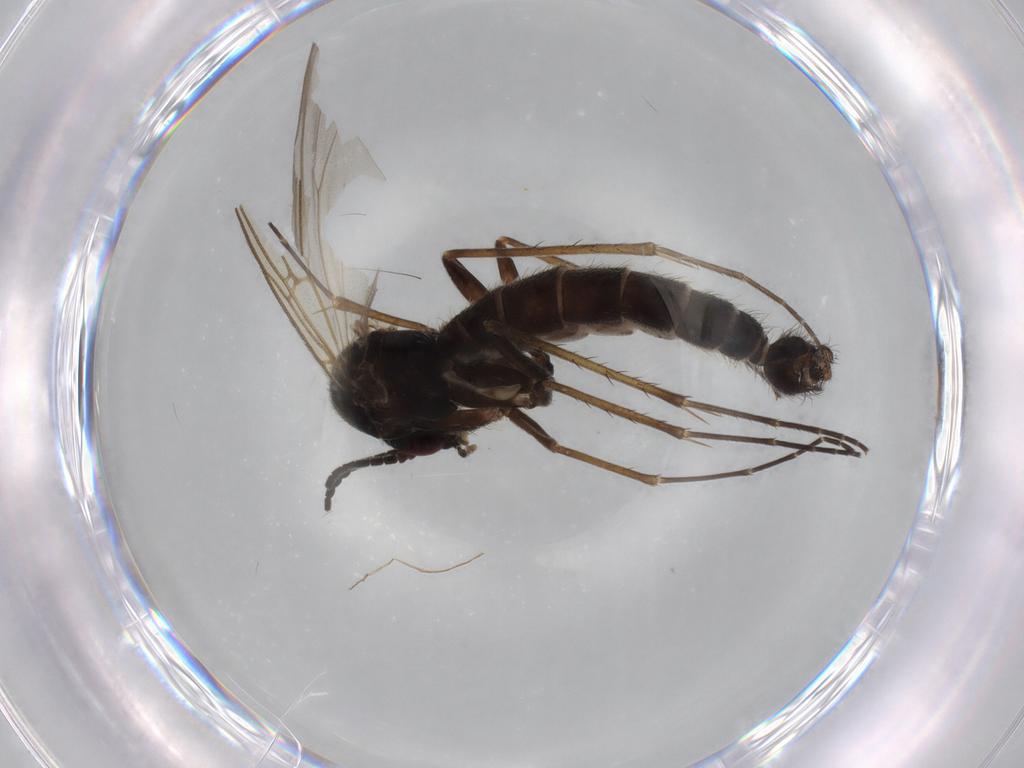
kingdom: Animalia
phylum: Arthropoda
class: Insecta
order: Diptera
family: Mycetophilidae
